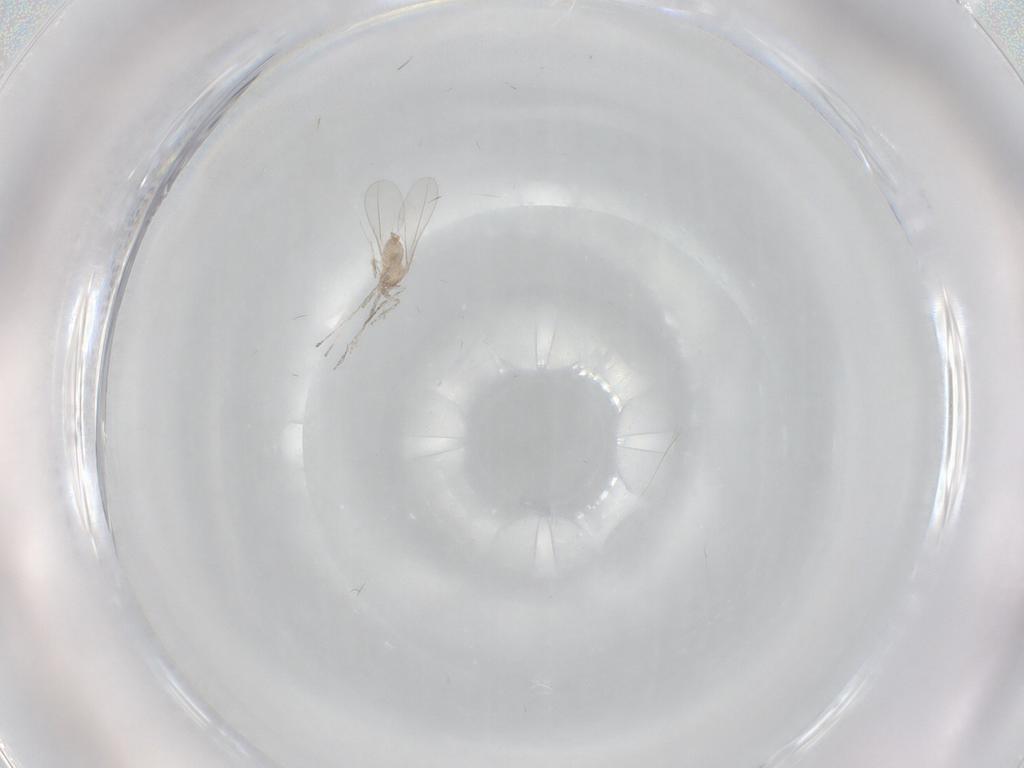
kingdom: Animalia
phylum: Arthropoda
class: Insecta
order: Diptera
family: Cecidomyiidae
